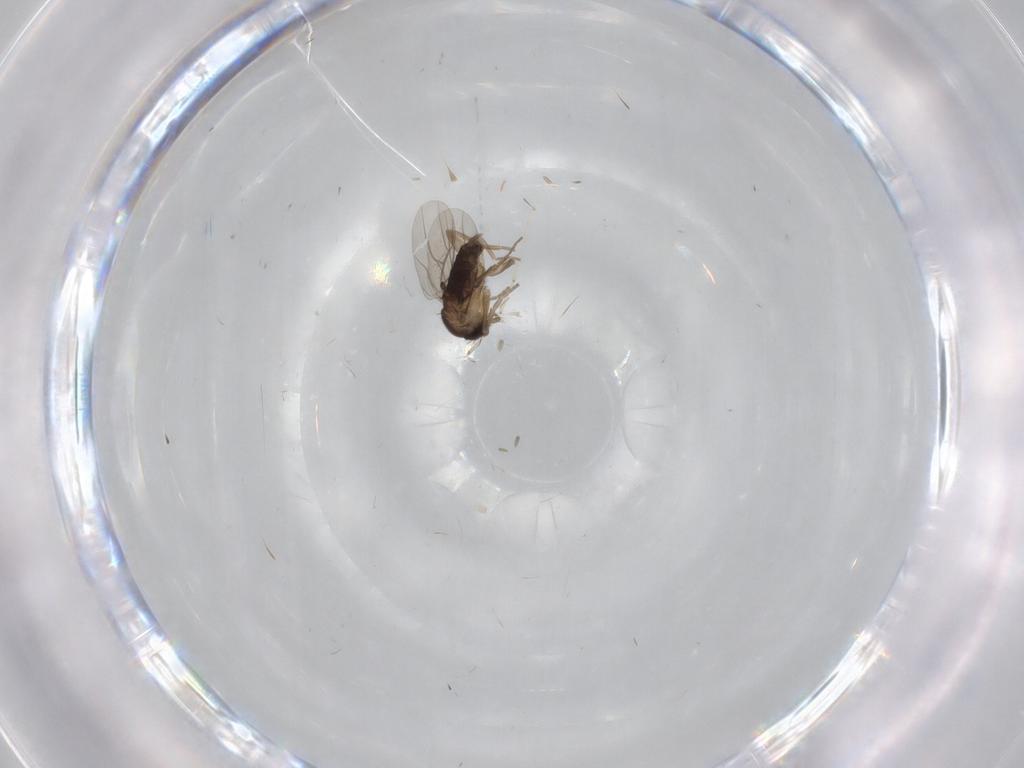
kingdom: Animalia
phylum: Arthropoda
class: Insecta
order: Diptera
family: Phoridae
